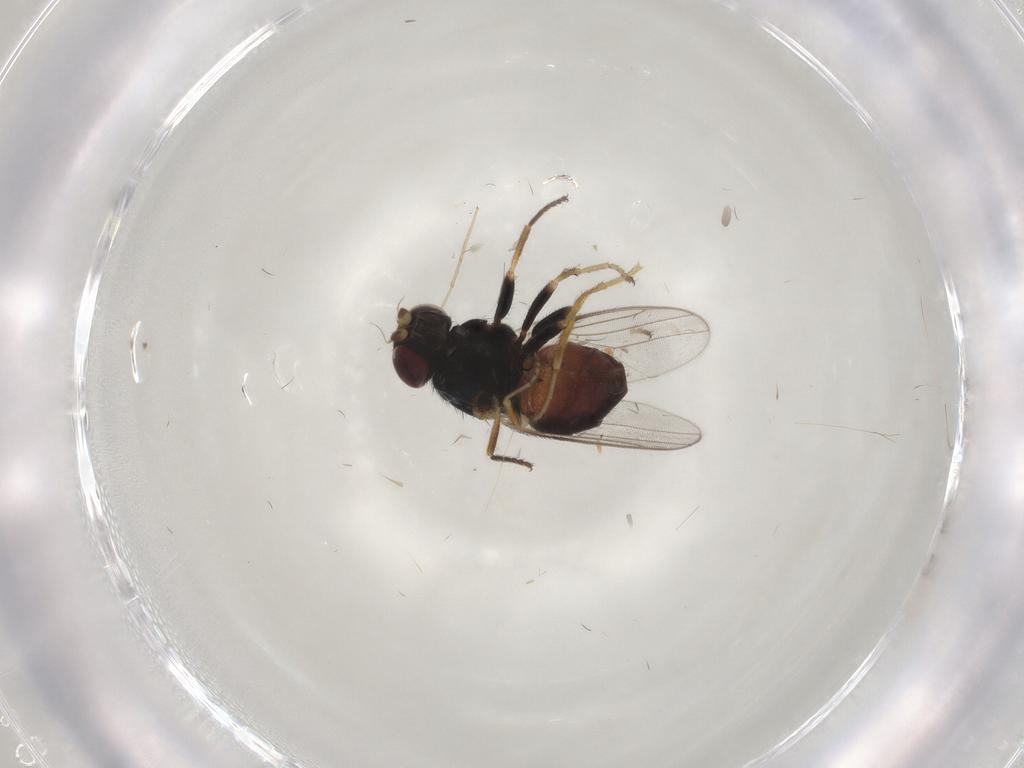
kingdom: Animalia
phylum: Arthropoda
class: Insecta
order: Diptera
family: Chloropidae
